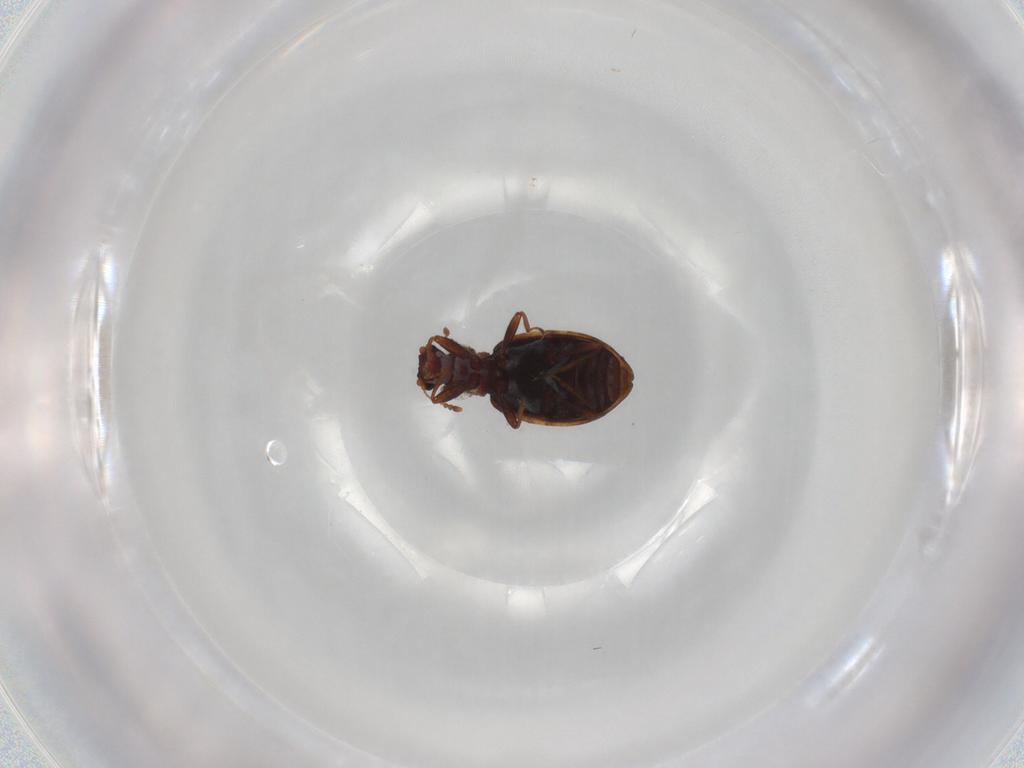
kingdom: Animalia
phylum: Arthropoda
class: Insecta
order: Coleoptera
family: Latridiidae
